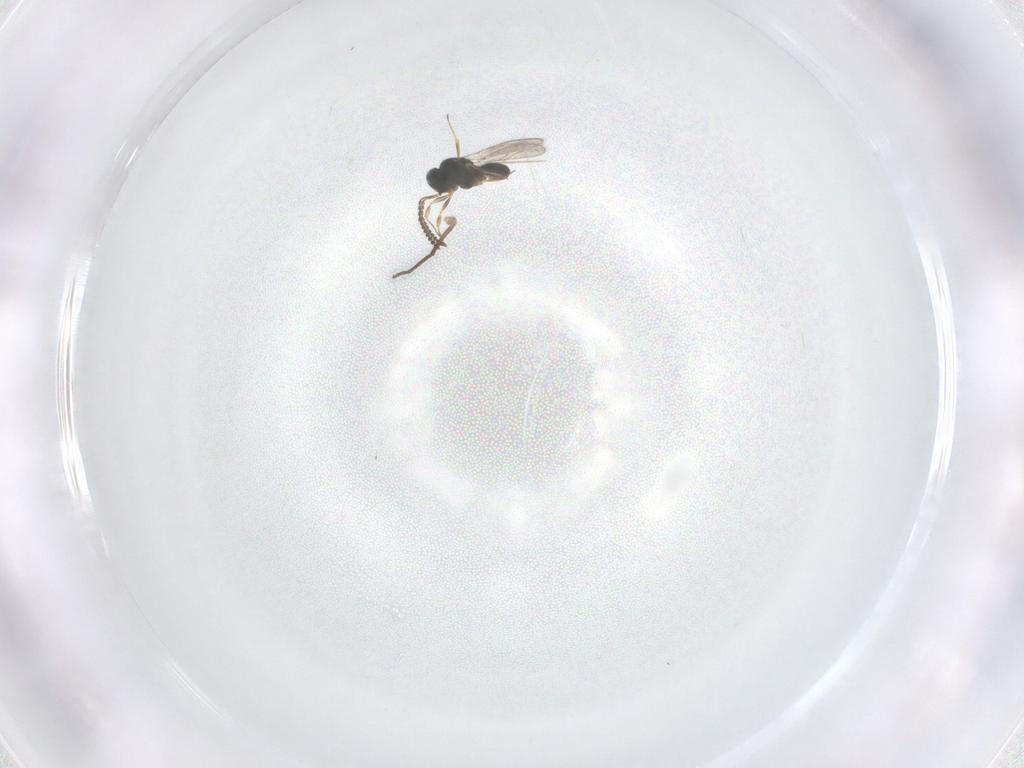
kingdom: Animalia
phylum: Arthropoda
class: Insecta
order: Hymenoptera
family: Scelionidae
